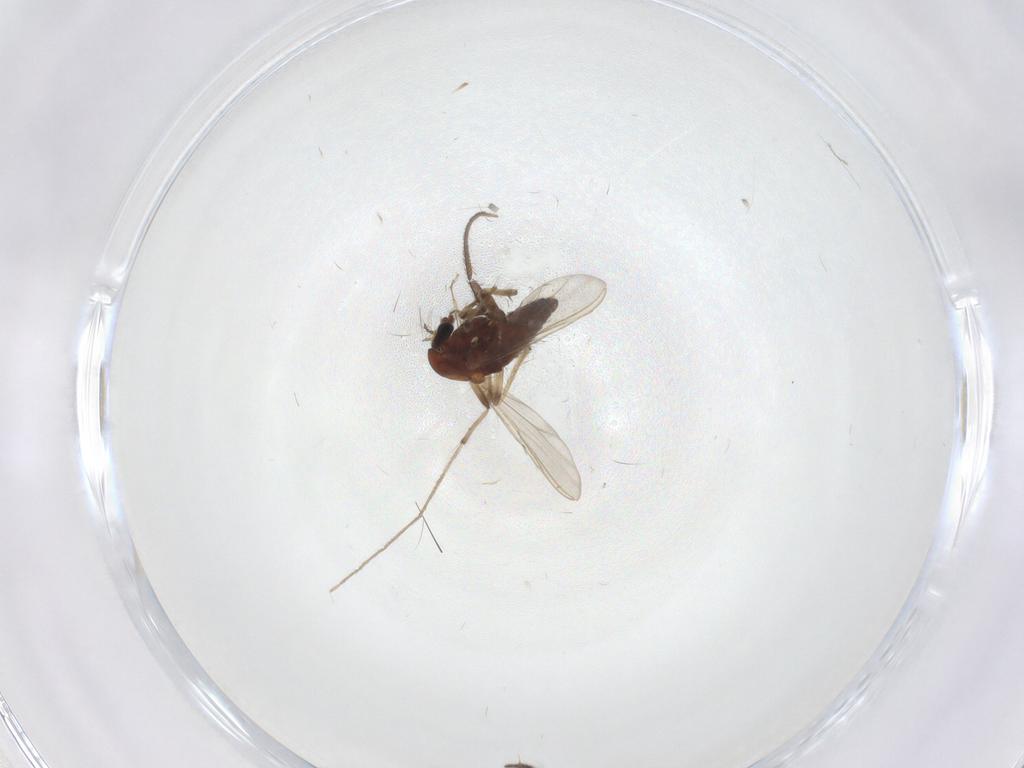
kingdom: Animalia
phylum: Arthropoda
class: Insecta
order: Diptera
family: Chironomidae
